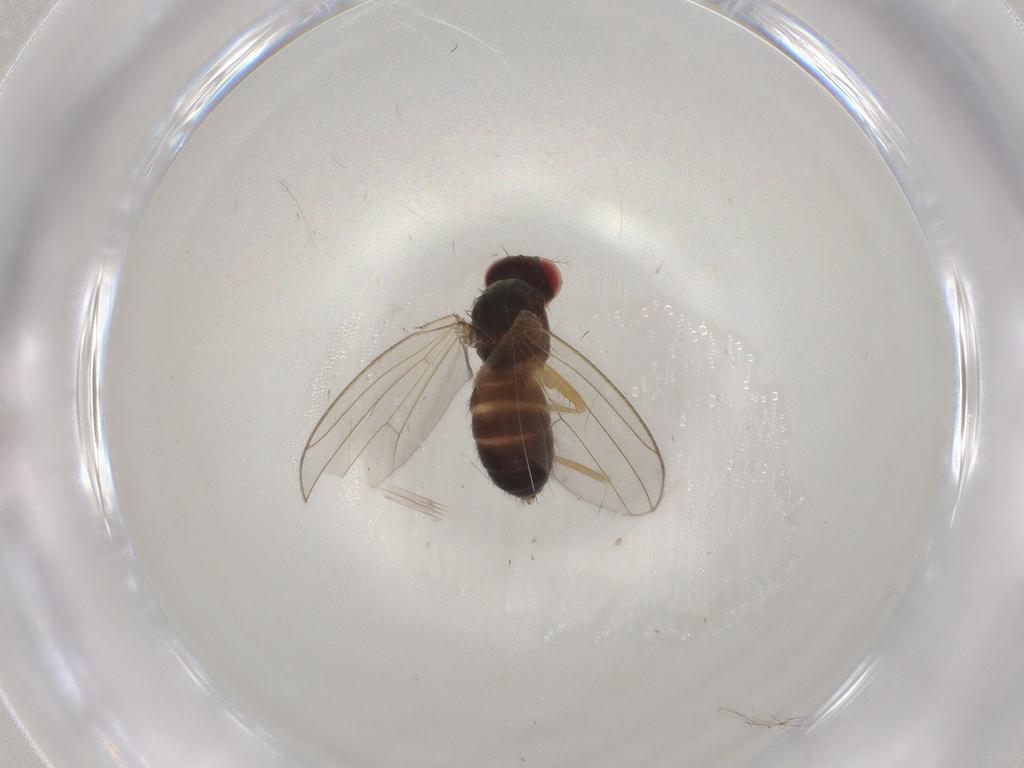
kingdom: Animalia
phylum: Arthropoda
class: Insecta
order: Diptera
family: Drosophilidae
